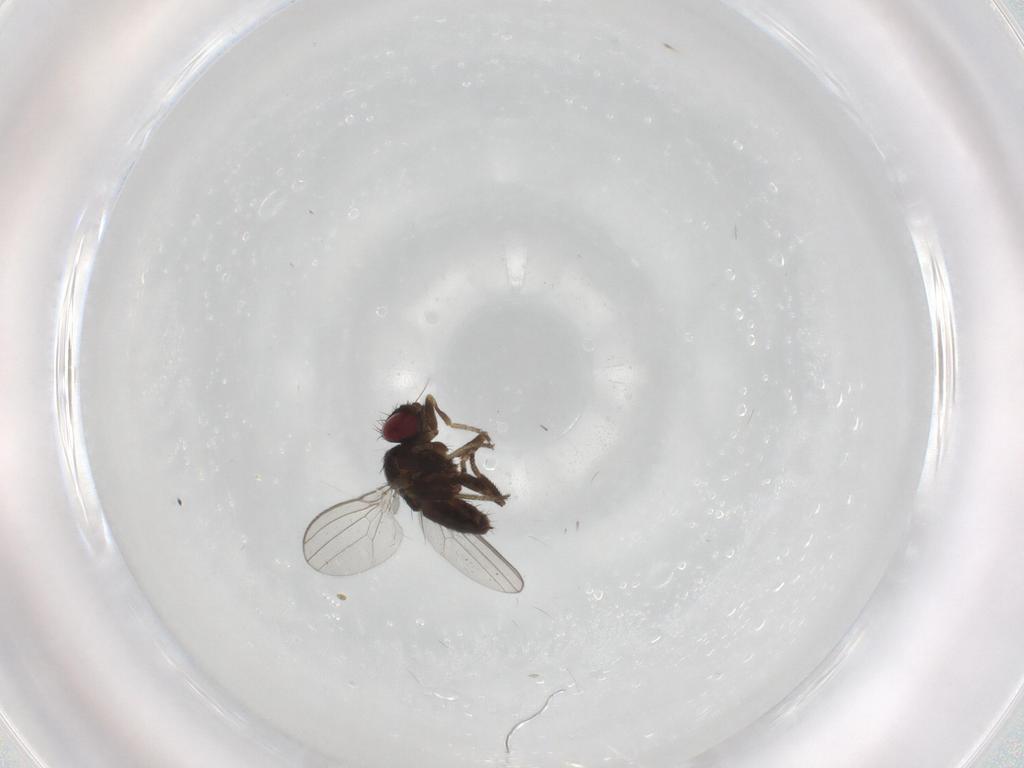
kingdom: Animalia
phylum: Arthropoda
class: Insecta
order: Diptera
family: Milichiidae
